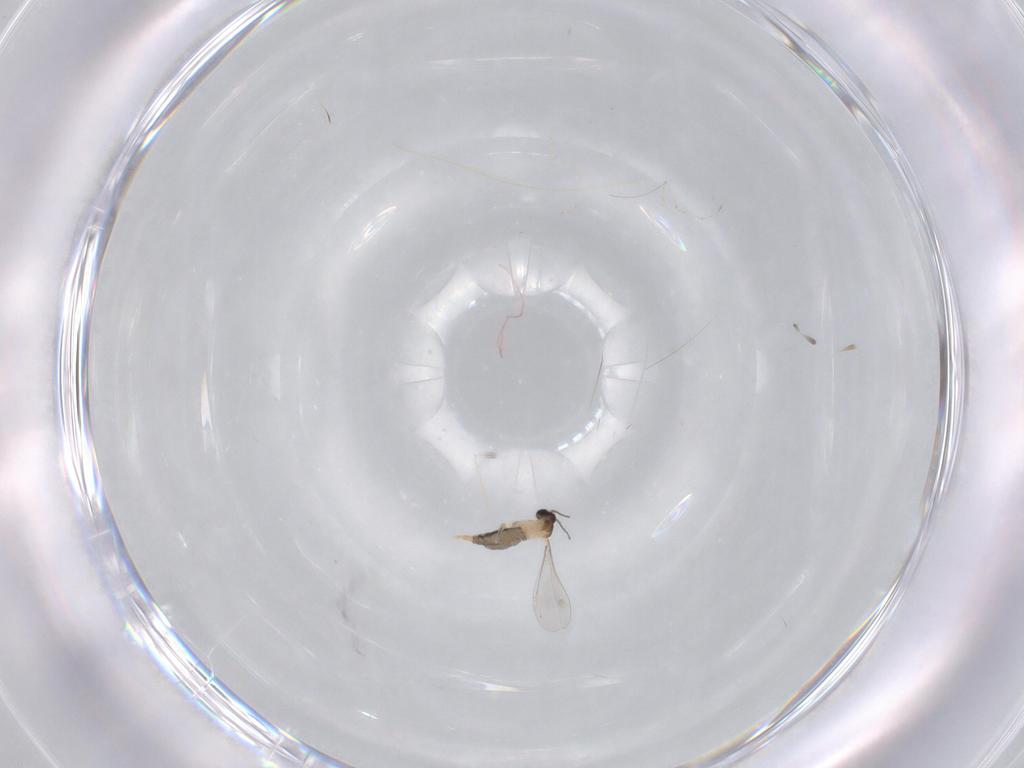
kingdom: Animalia
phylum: Arthropoda
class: Insecta
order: Diptera
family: Cecidomyiidae
